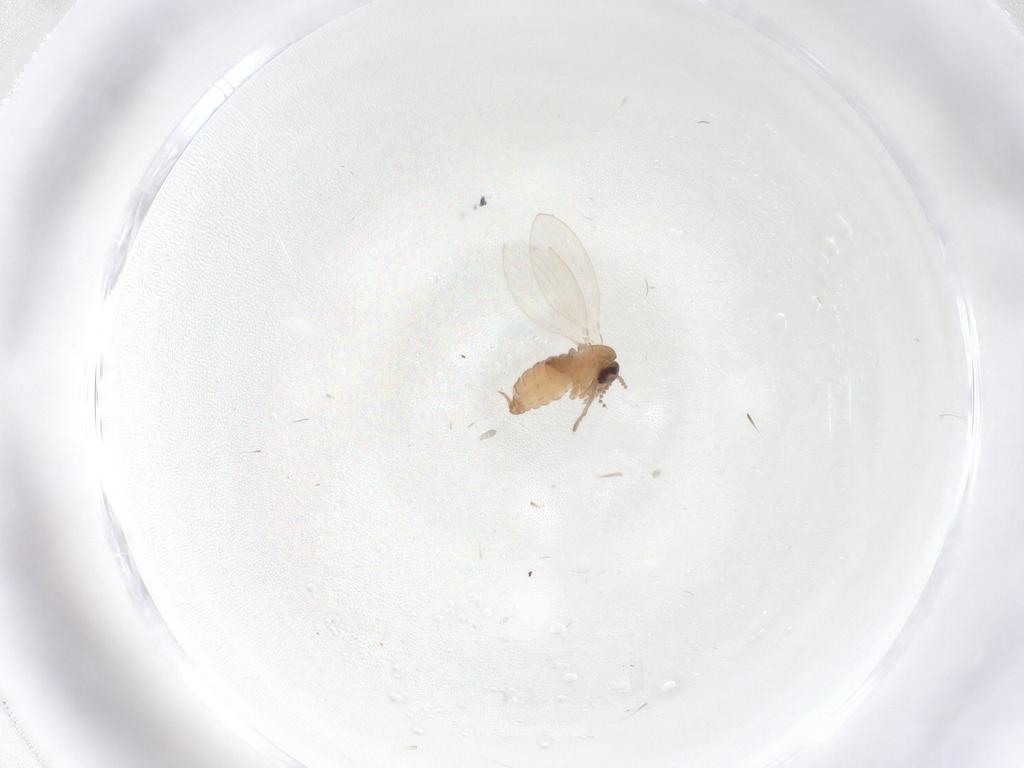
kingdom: Animalia
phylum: Arthropoda
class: Insecta
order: Diptera
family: Psychodidae
